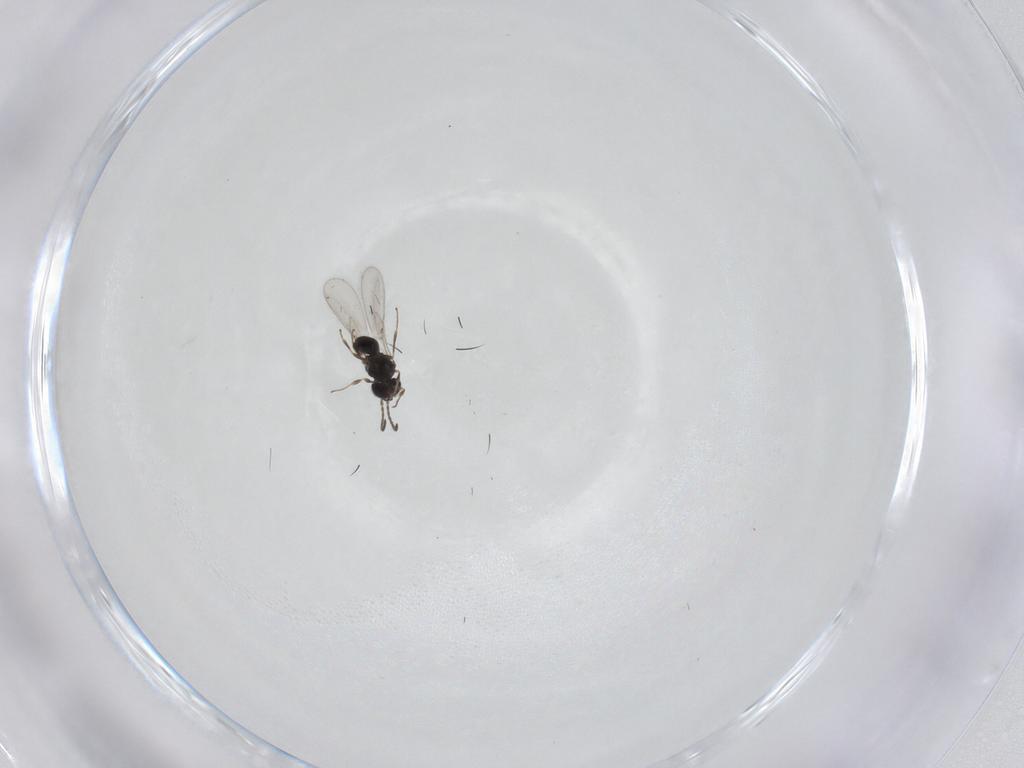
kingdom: Animalia
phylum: Arthropoda
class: Insecta
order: Hymenoptera
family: Scelionidae
